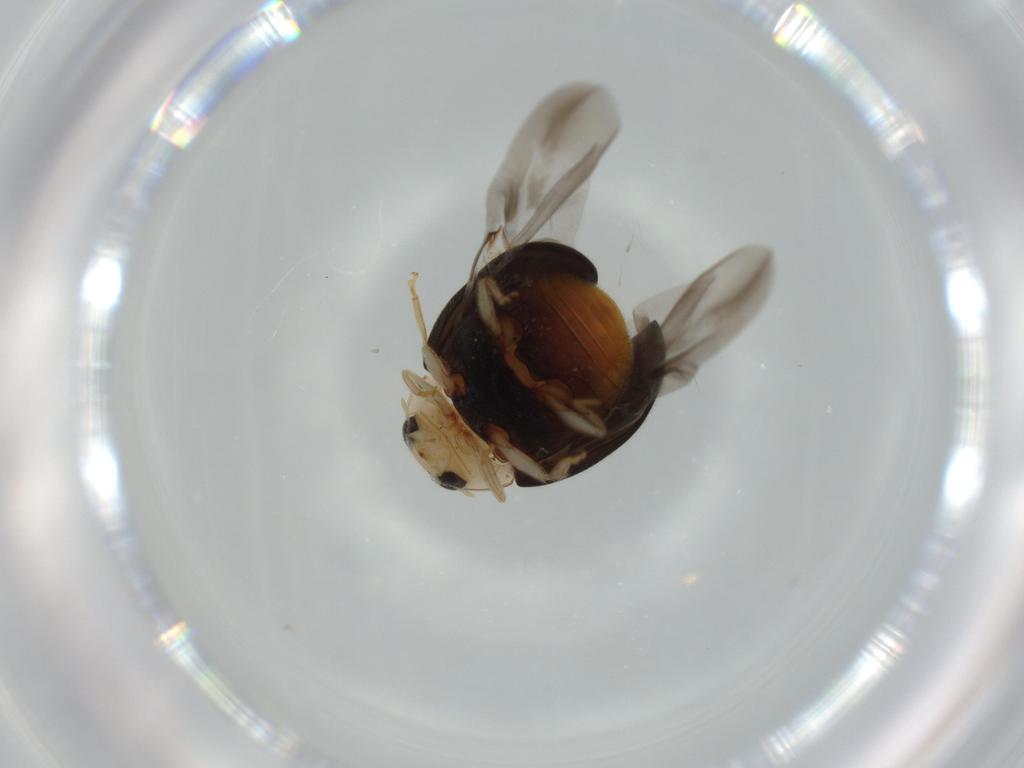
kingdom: Animalia
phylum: Arthropoda
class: Insecta
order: Coleoptera
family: Coccinellidae
